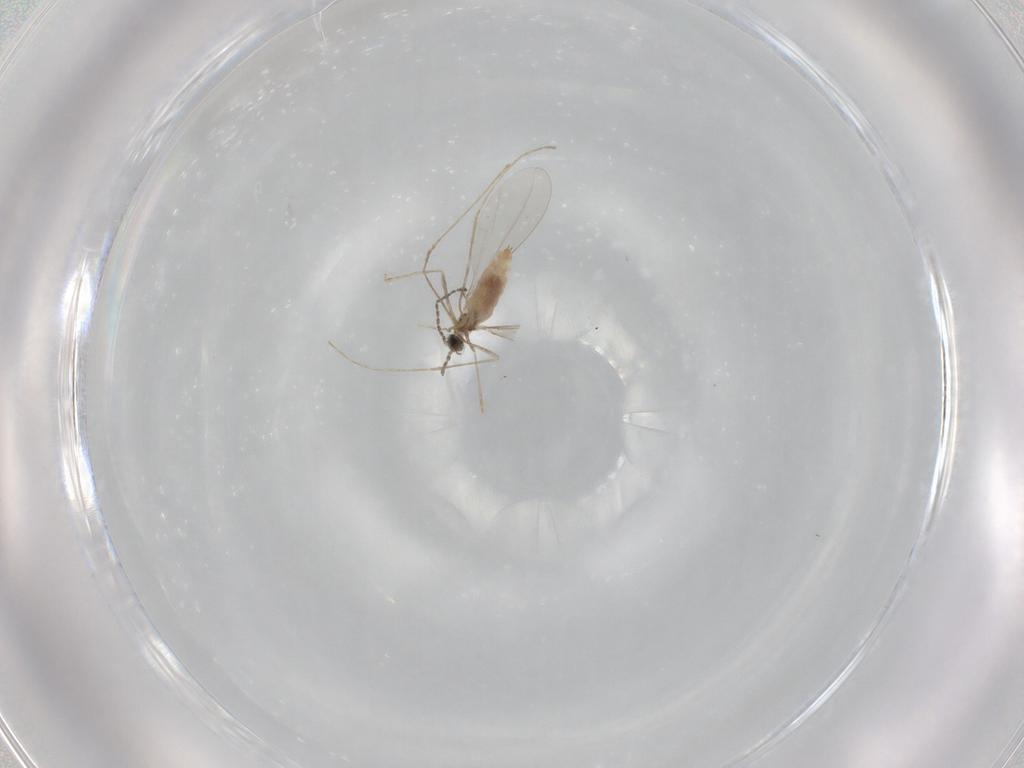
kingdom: Animalia
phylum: Arthropoda
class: Insecta
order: Diptera
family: Cecidomyiidae
